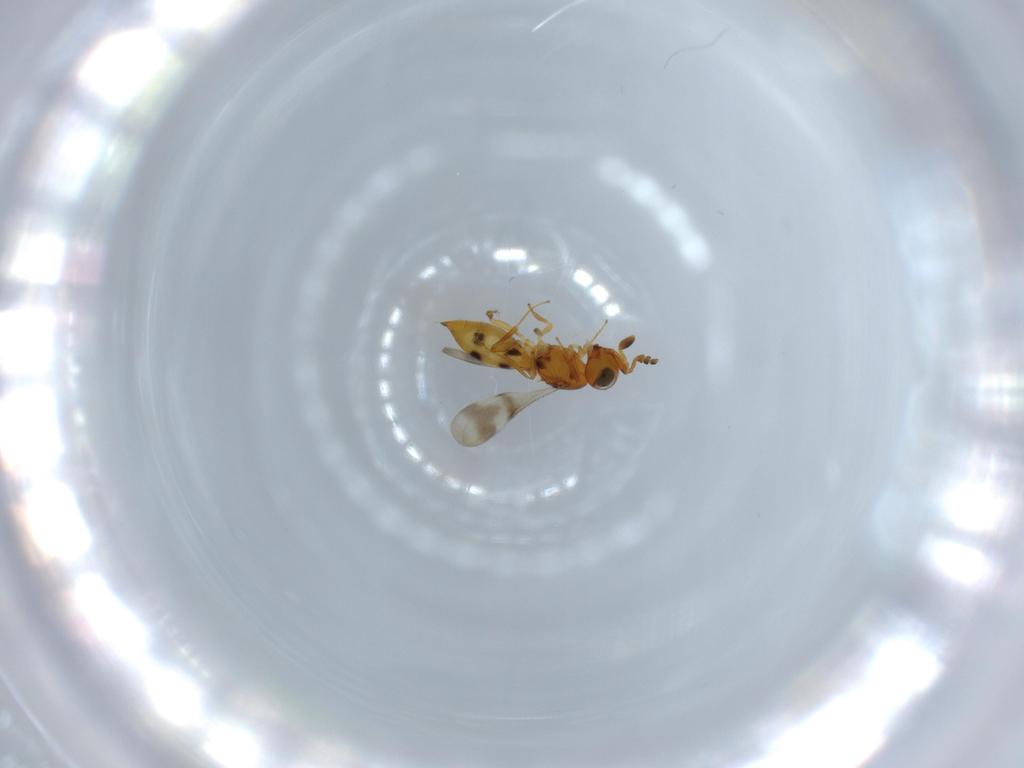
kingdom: Animalia
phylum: Arthropoda
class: Insecta
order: Hymenoptera
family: Scelionidae
